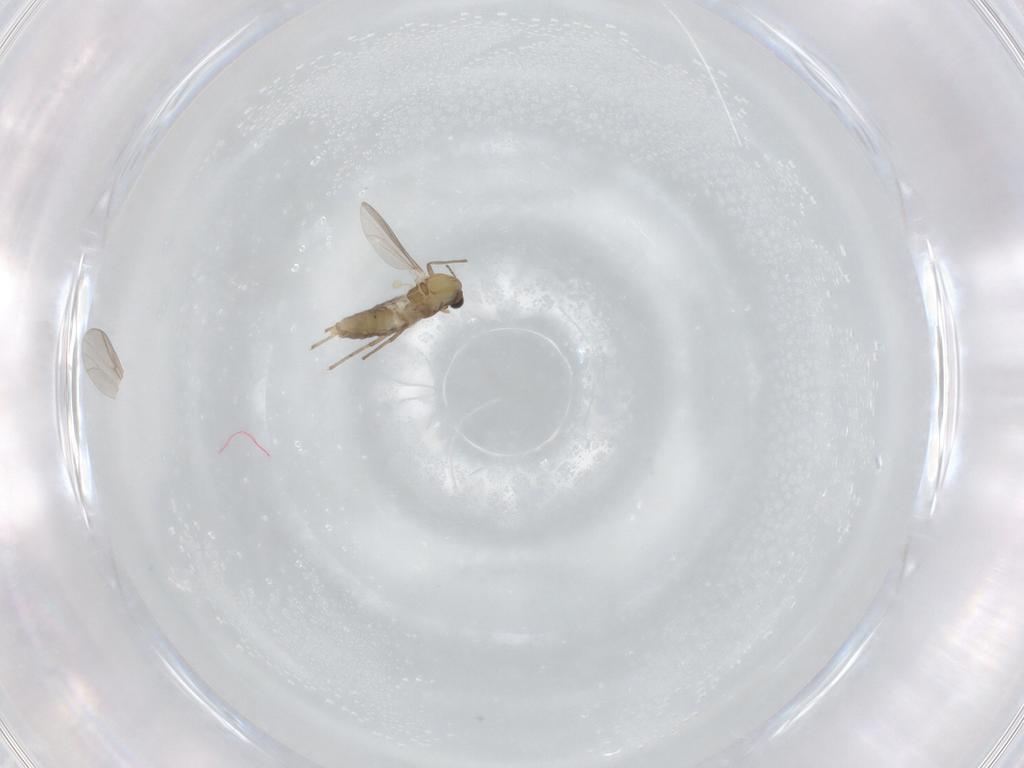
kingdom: Animalia
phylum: Arthropoda
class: Insecta
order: Diptera
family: Chironomidae
